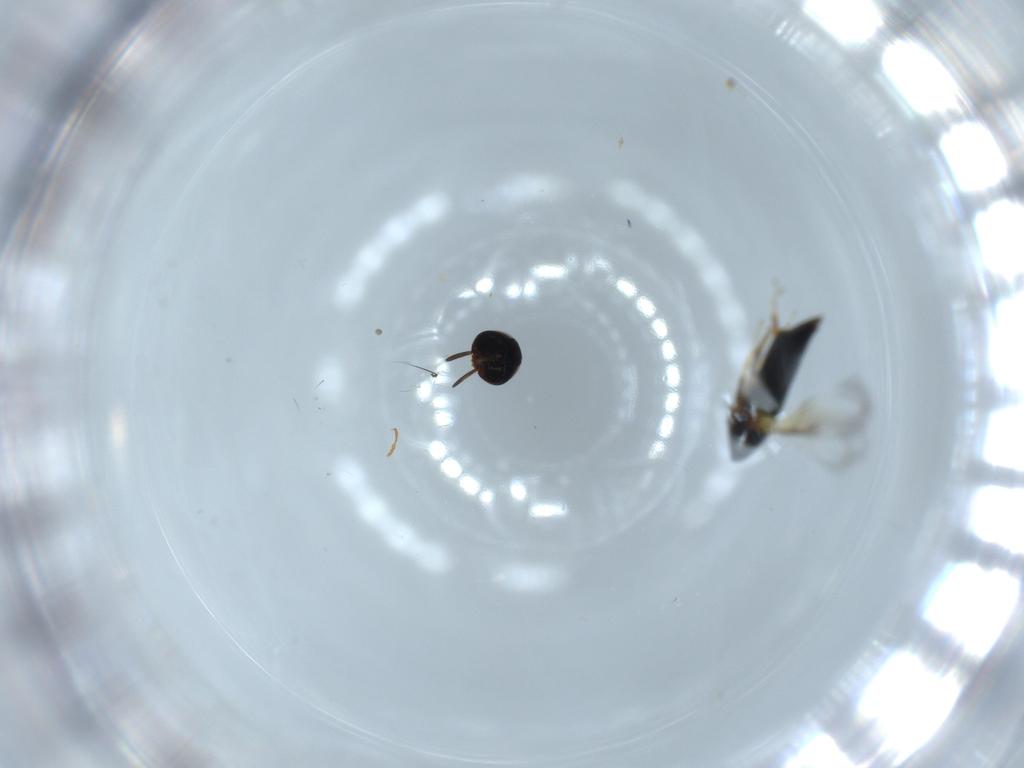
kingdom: Animalia
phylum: Arthropoda
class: Insecta
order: Hymenoptera
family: Signiphoridae
